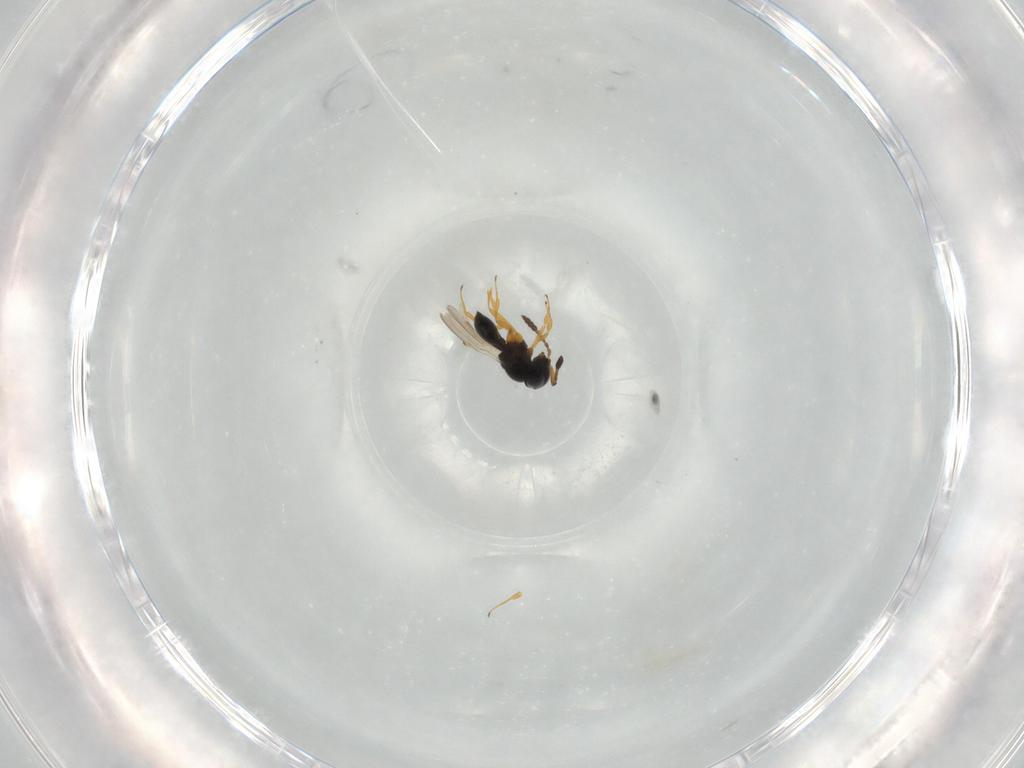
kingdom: Animalia
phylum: Arthropoda
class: Insecta
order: Hymenoptera
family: Scelionidae
